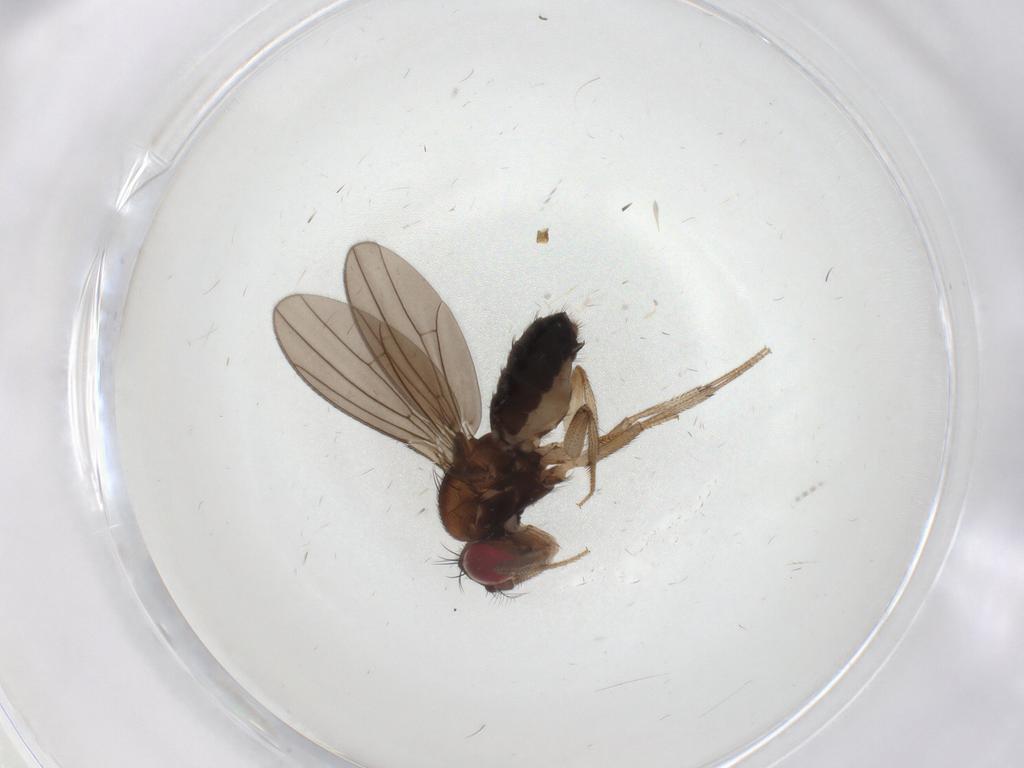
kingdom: Animalia
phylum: Arthropoda
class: Insecta
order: Diptera
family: Drosophilidae
